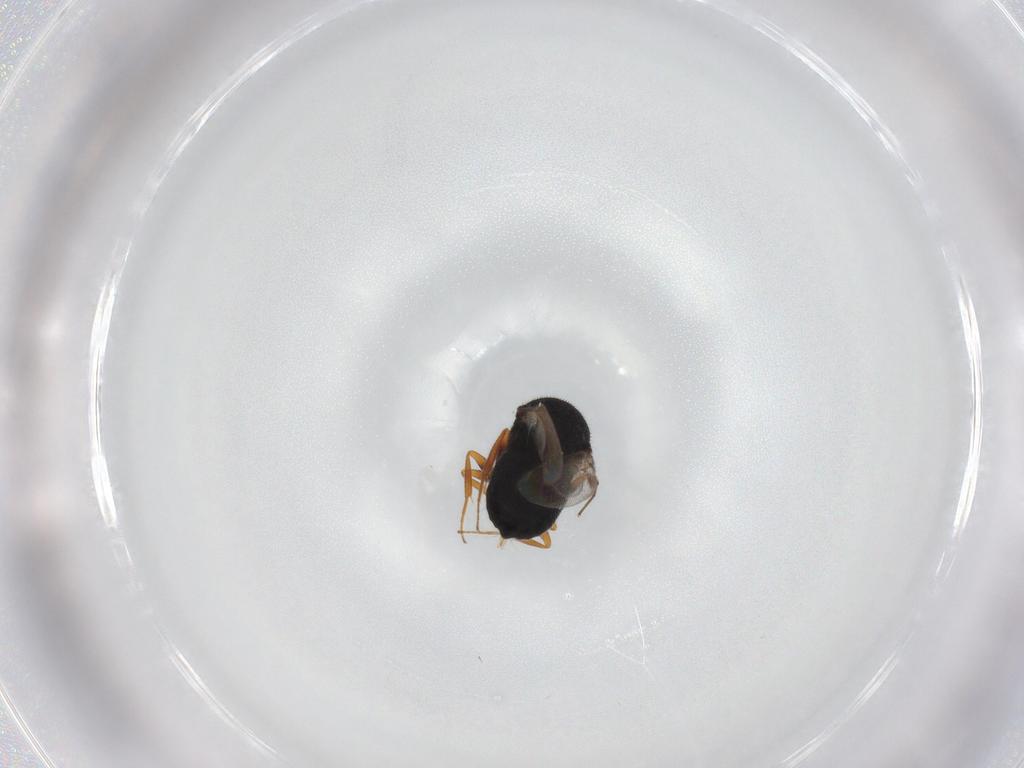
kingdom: Animalia
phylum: Arthropoda
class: Insecta
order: Hymenoptera
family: Scelionidae
